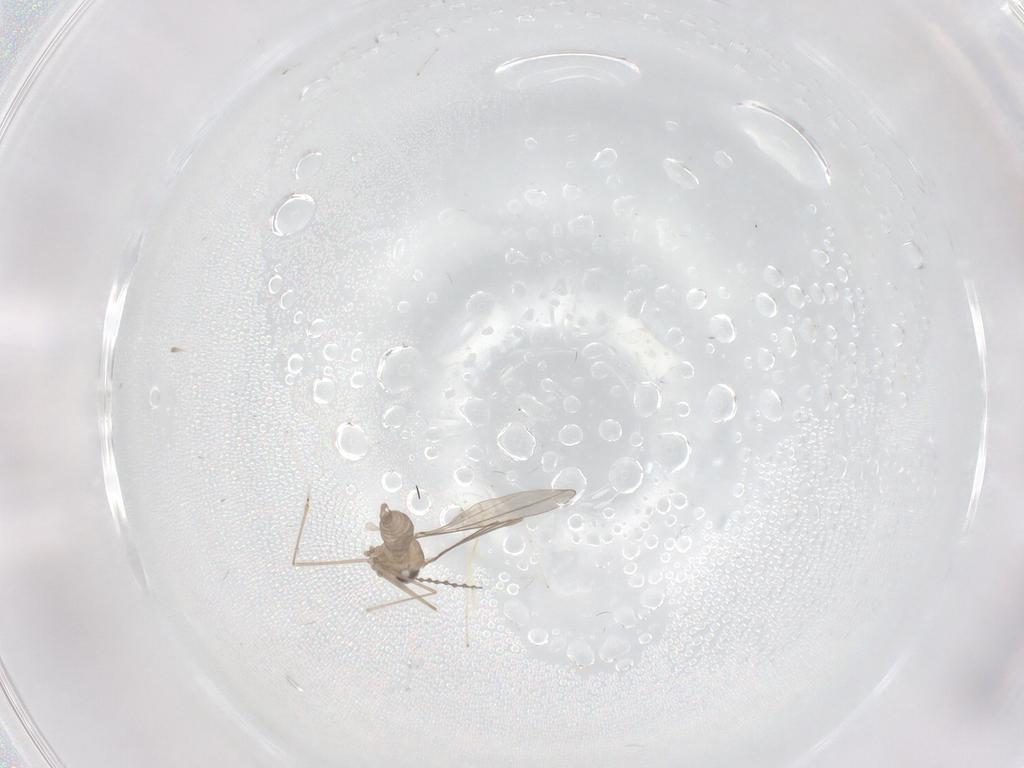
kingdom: Animalia
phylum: Arthropoda
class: Insecta
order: Diptera
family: Cecidomyiidae
